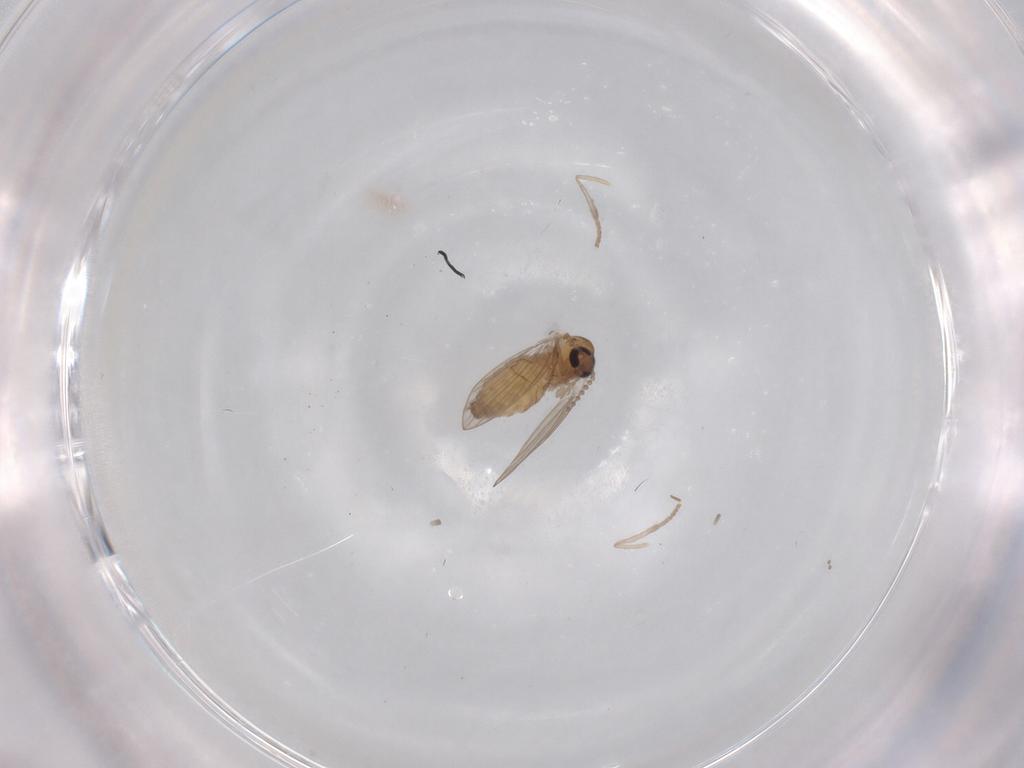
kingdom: Animalia
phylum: Arthropoda
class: Insecta
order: Diptera
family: Psychodidae
